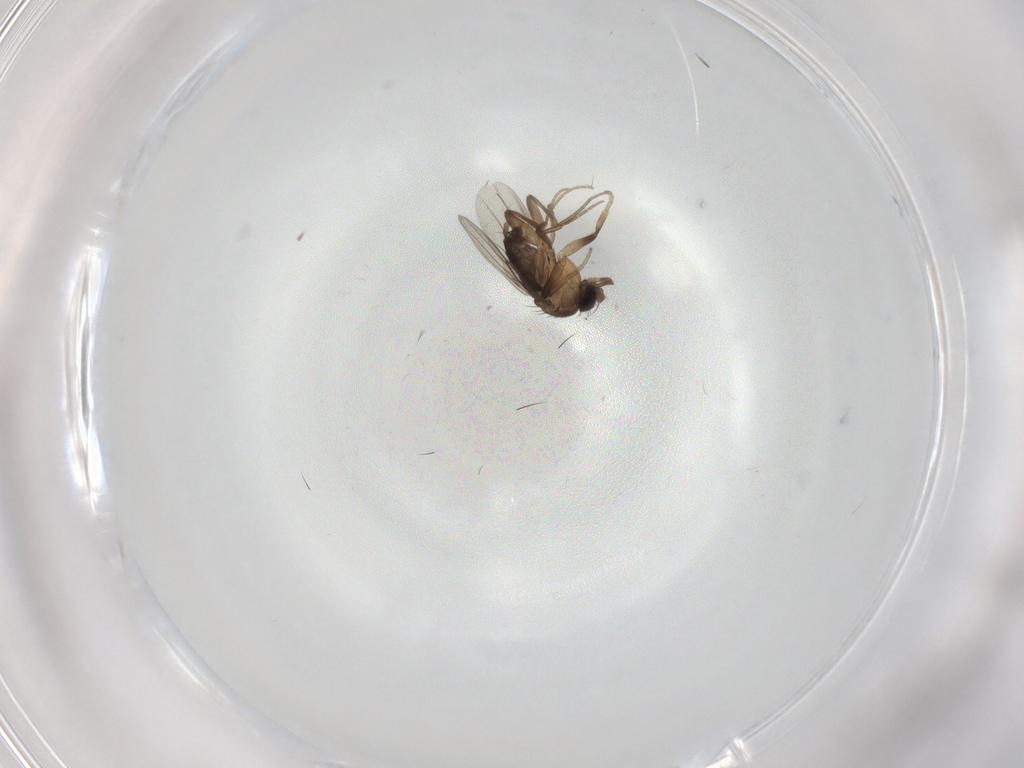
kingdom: Animalia
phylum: Arthropoda
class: Insecta
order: Diptera
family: Phoridae
